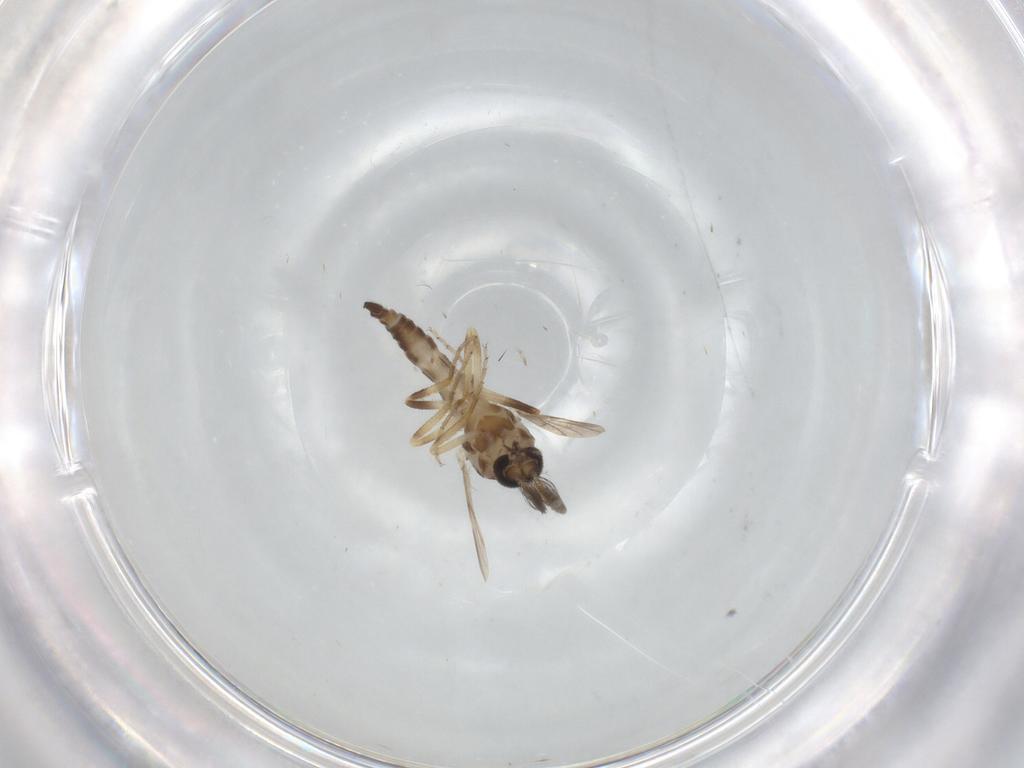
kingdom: Animalia
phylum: Arthropoda
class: Insecta
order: Diptera
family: Ceratopogonidae
